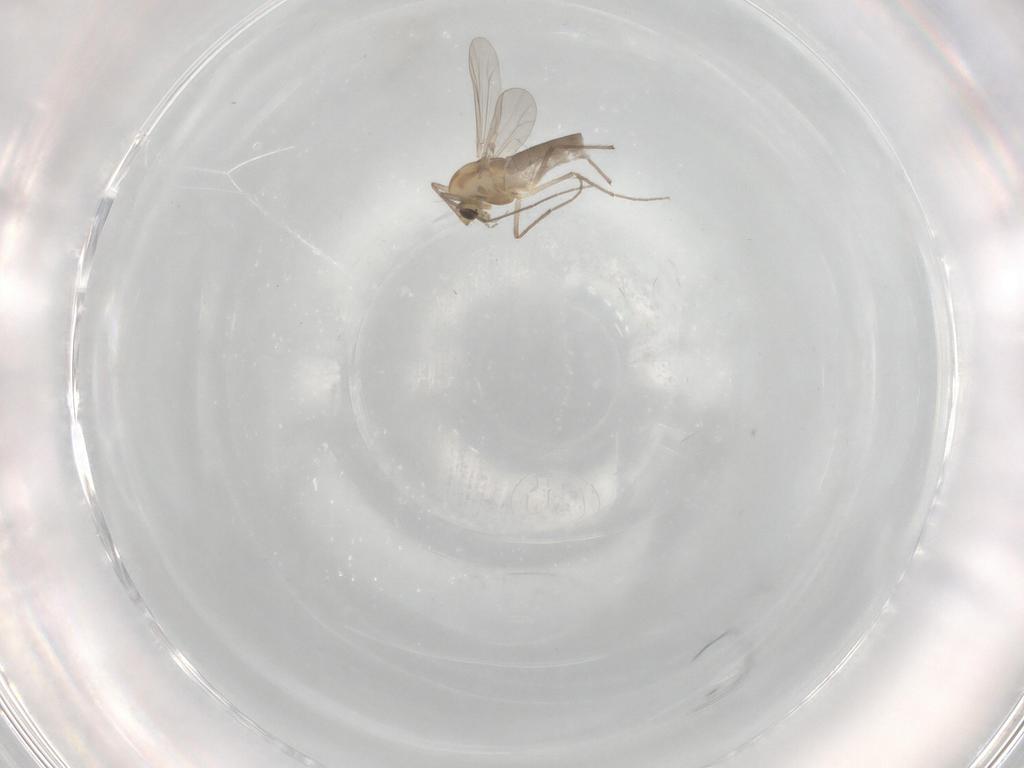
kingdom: Animalia
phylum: Arthropoda
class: Insecta
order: Diptera
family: Chironomidae
